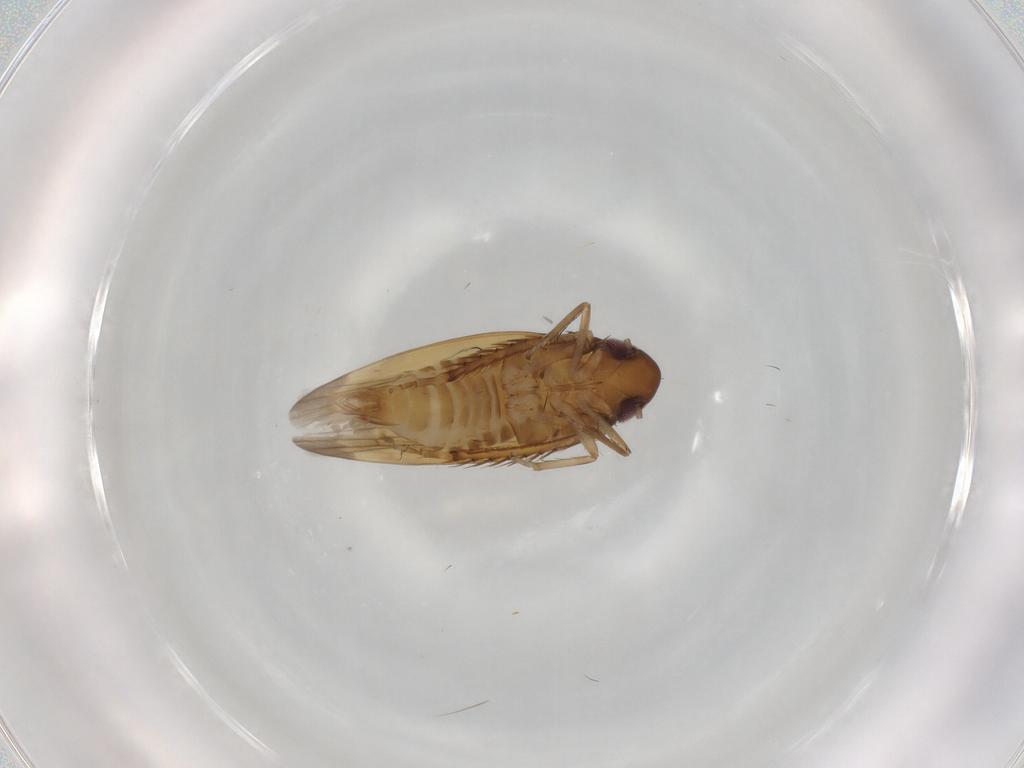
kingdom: Animalia
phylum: Arthropoda
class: Insecta
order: Hemiptera
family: Cicadellidae
